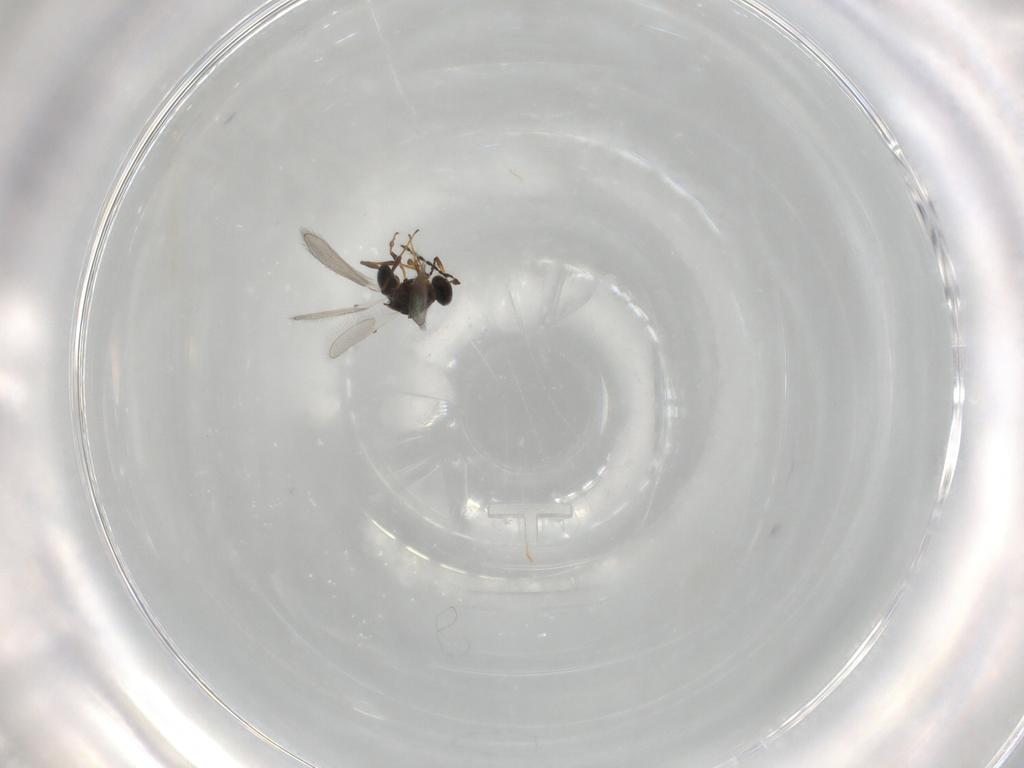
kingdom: Animalia
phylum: Arthropoda
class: Insecta
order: Hymenoptera
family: Platygastridae
